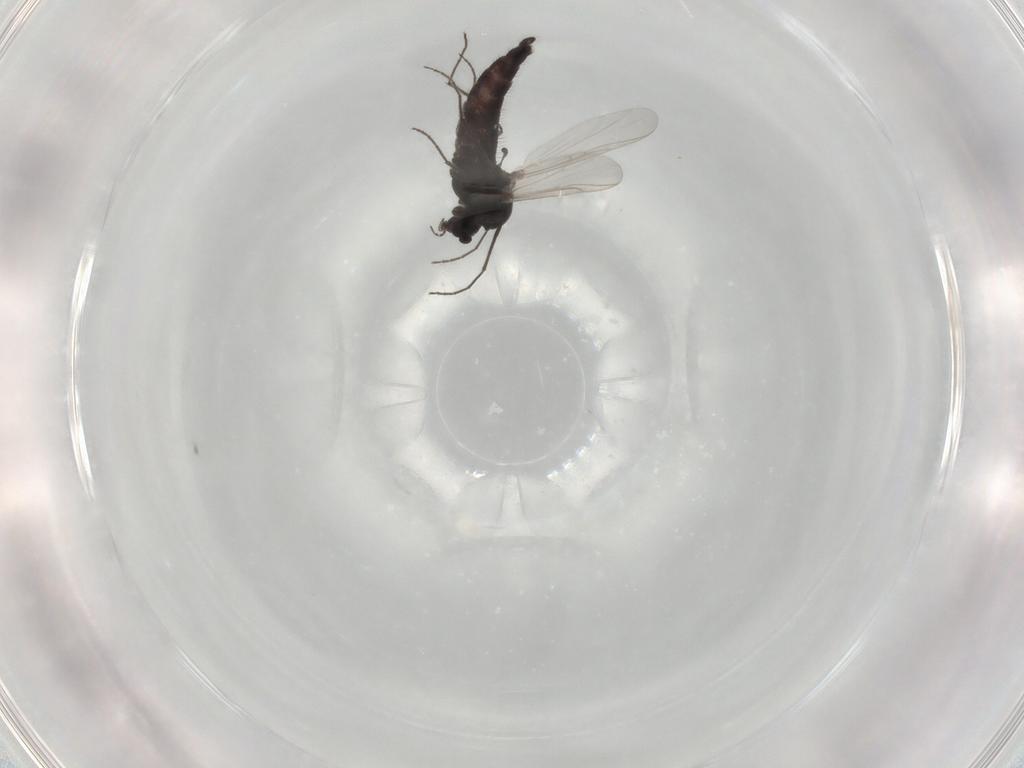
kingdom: Animalia
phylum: Arthropoda
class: Insecta
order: Diptera
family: Chironomidae
